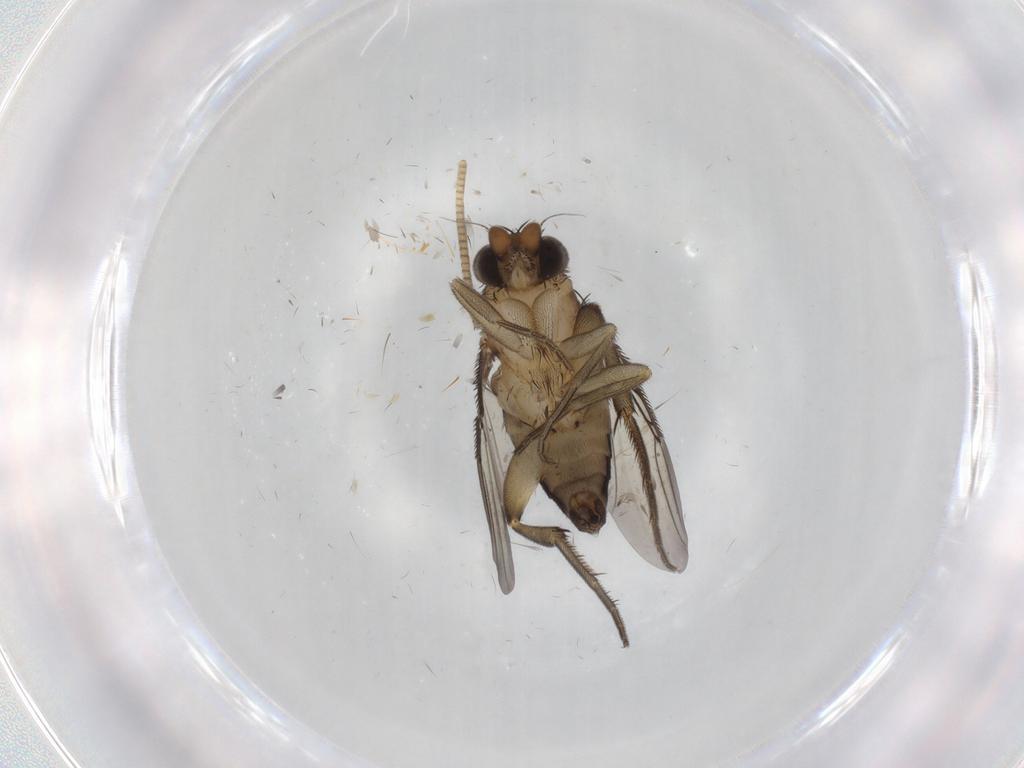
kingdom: Animalia
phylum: Arthropoda
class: Insecta
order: Diptera
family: Phoridae
